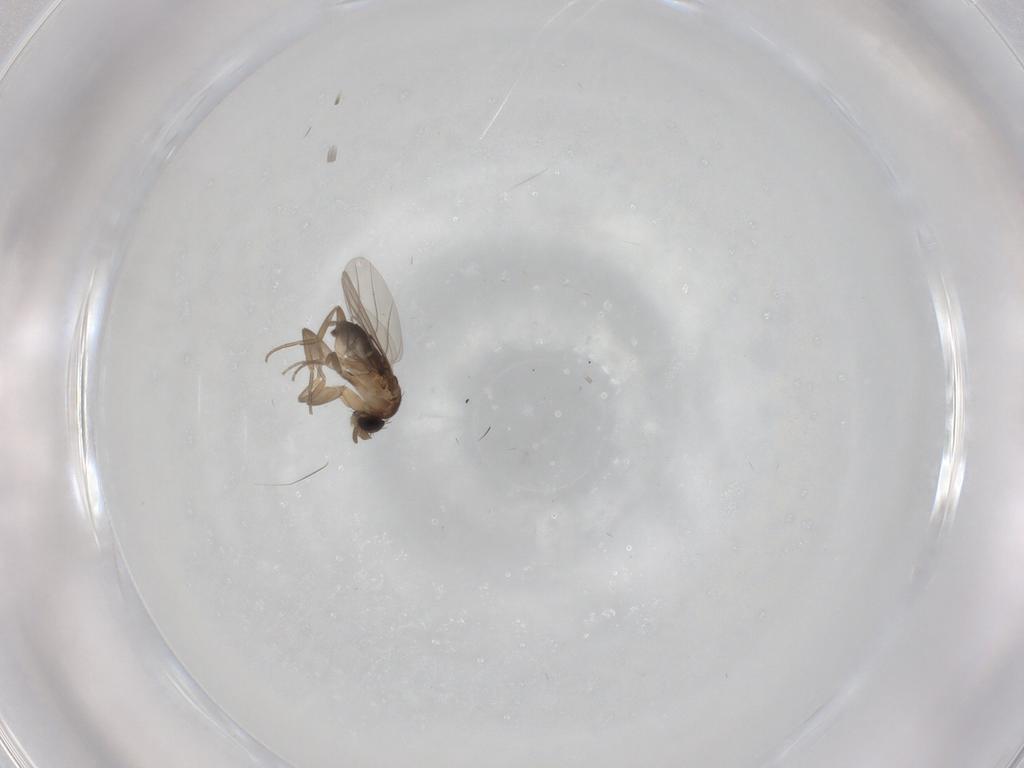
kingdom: Animalia
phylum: Arthropoda
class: Insecta
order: Diptera
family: Phoridae
